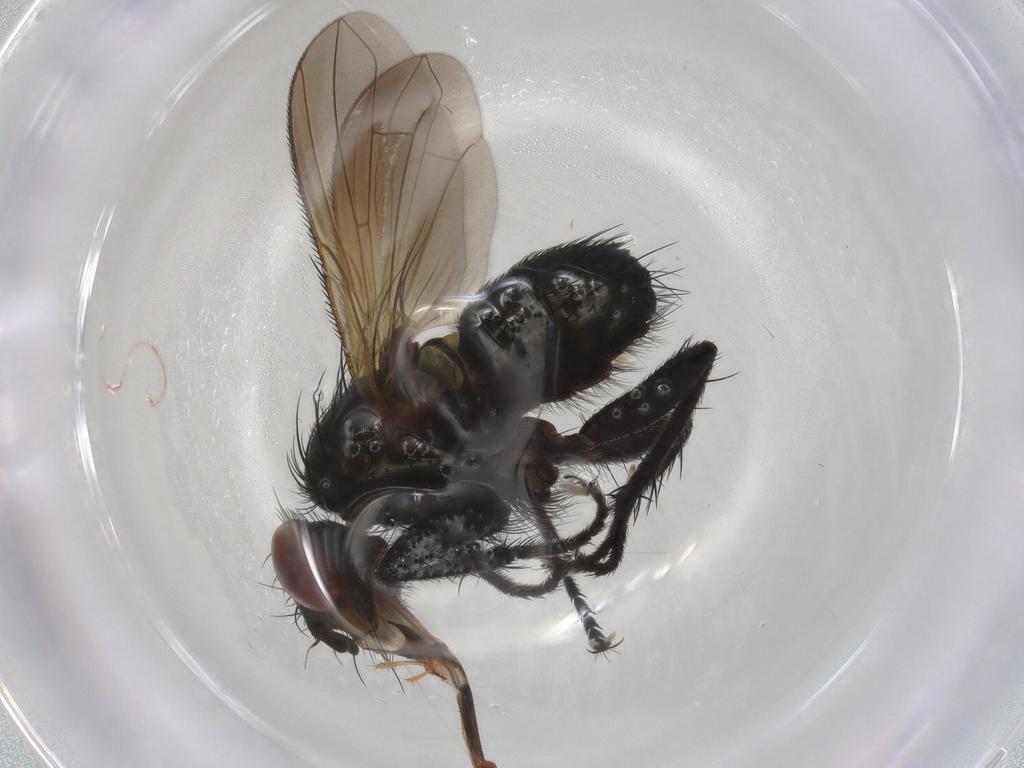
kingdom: Animalia
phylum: Arthropoda
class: Insecta
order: Diptera
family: Calliphoridae
